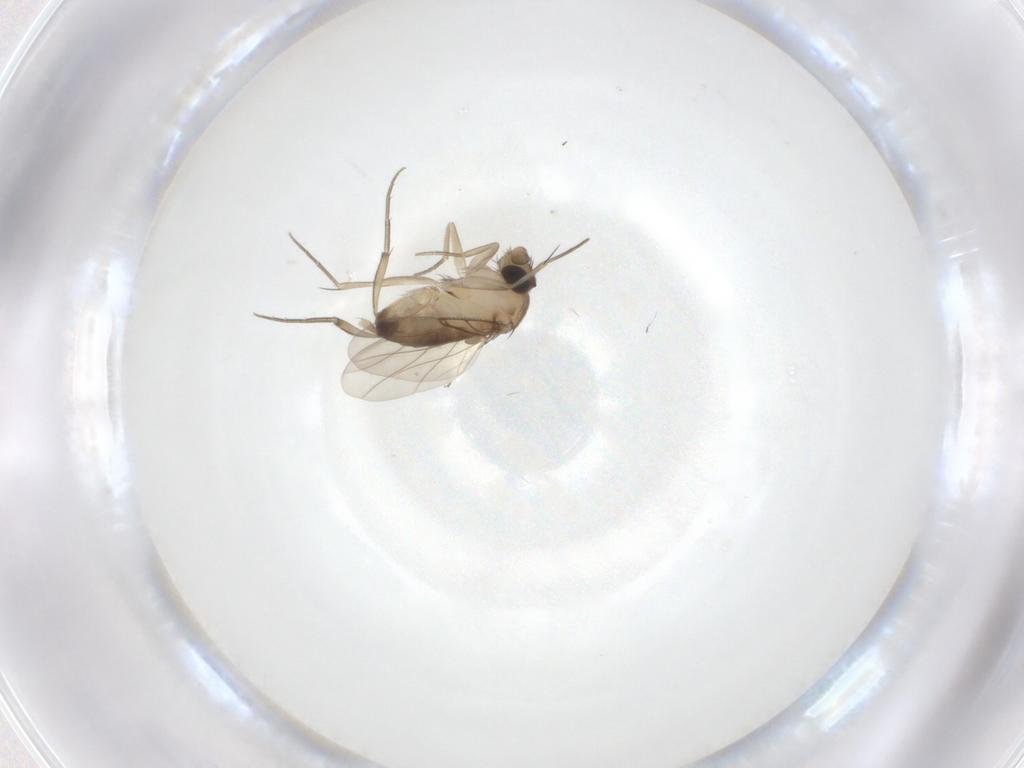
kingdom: Animalia
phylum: Arthropoda
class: Insecta
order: Diptera
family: Phoridae
